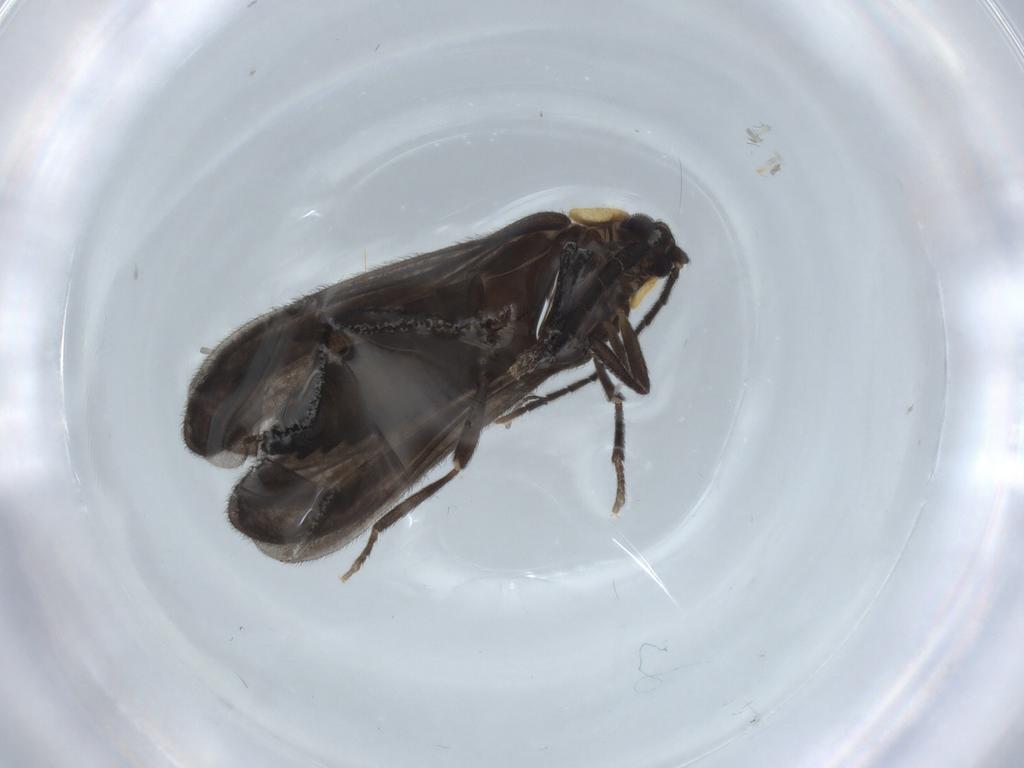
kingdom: Animalia
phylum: Arthropoda
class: Insecta
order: Coleoptera
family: Lycidae
